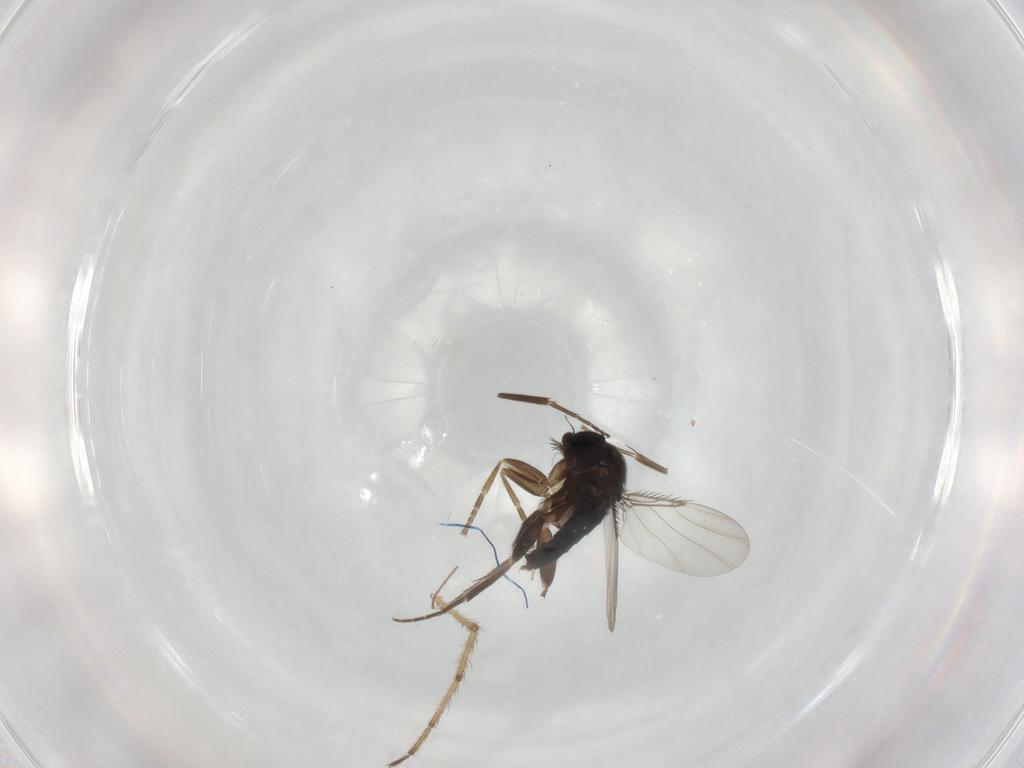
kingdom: Animalia
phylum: Arthropoda
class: Insecta
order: Diptera
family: Phoridae
